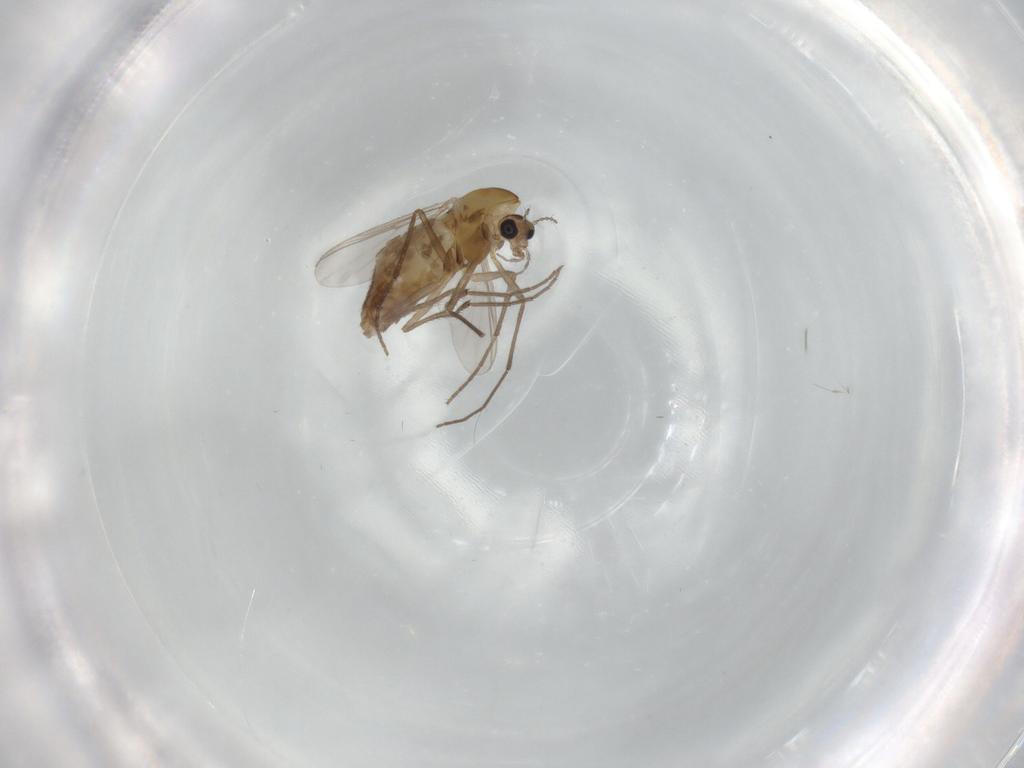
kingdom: Animalia
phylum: Arthropoda
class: Insecta
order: Diptera
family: Chironomidae
